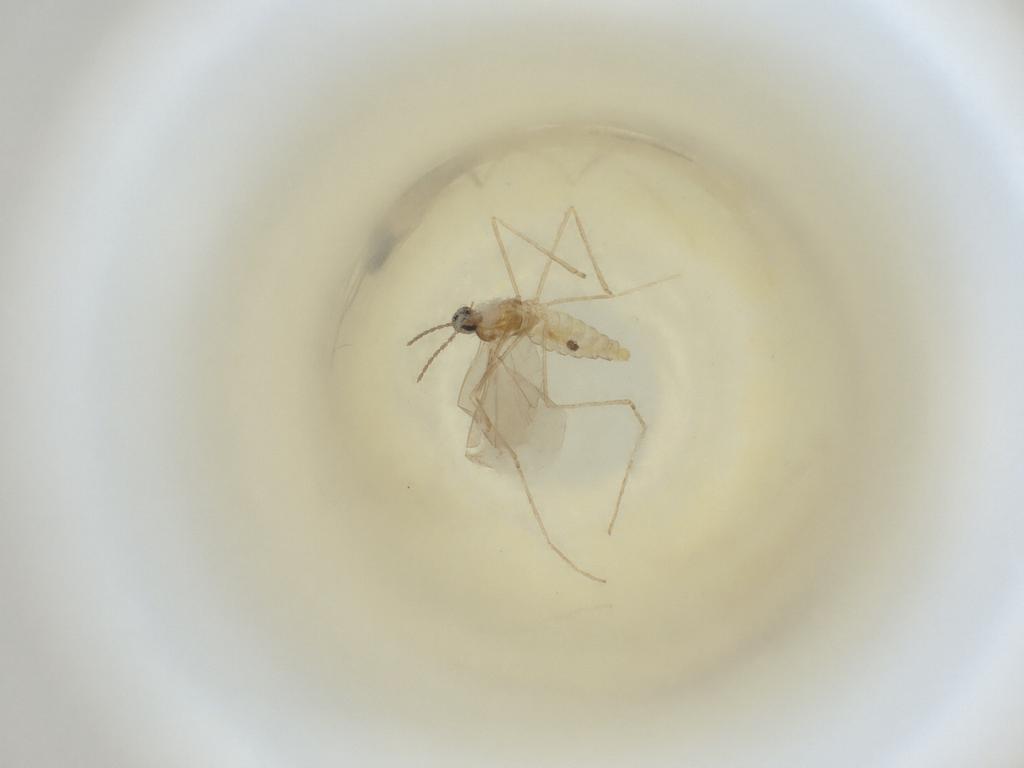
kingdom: Animalia
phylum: Arthropoda
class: Insecta
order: Diptera
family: Cecidomyiidae
